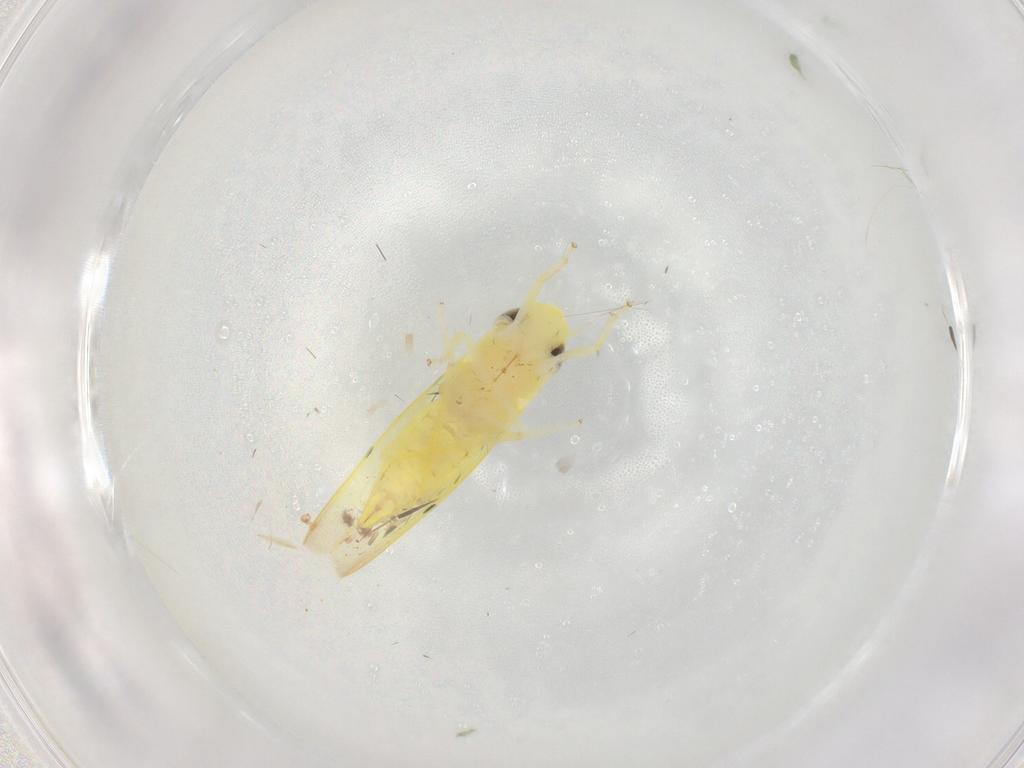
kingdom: Animalia
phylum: Arthropoda
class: Insecta
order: Hemiptera
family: Cicadellidae
